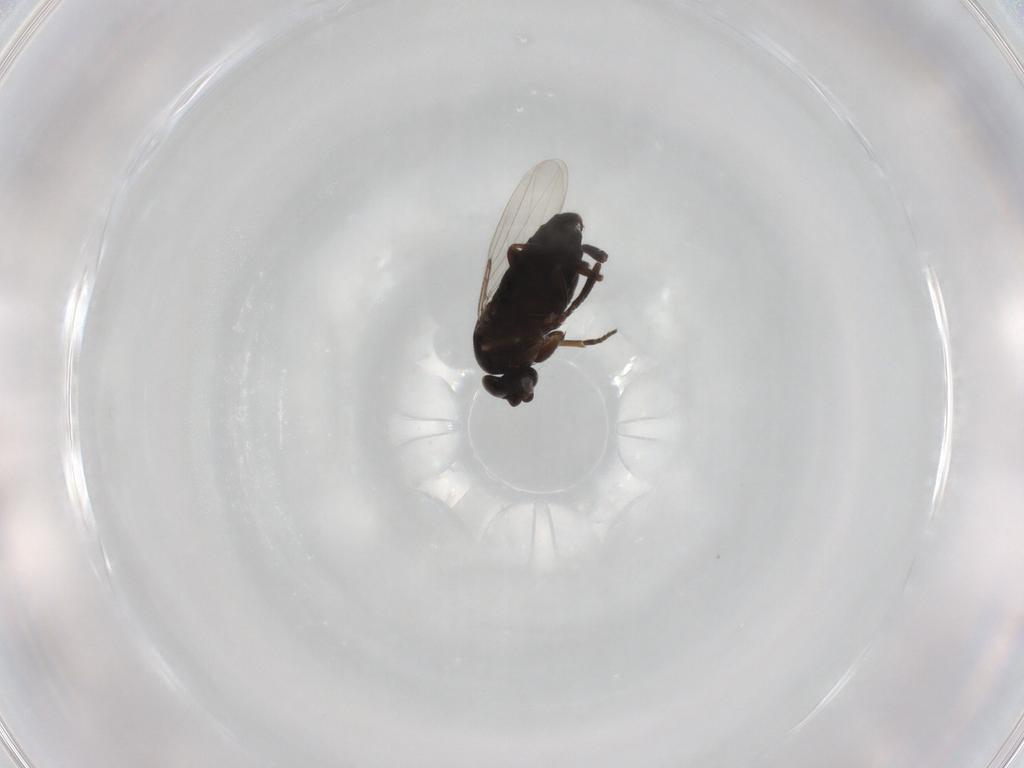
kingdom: Animalia
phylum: Arthropoda
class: Insecta
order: Diptera
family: Phoridae
